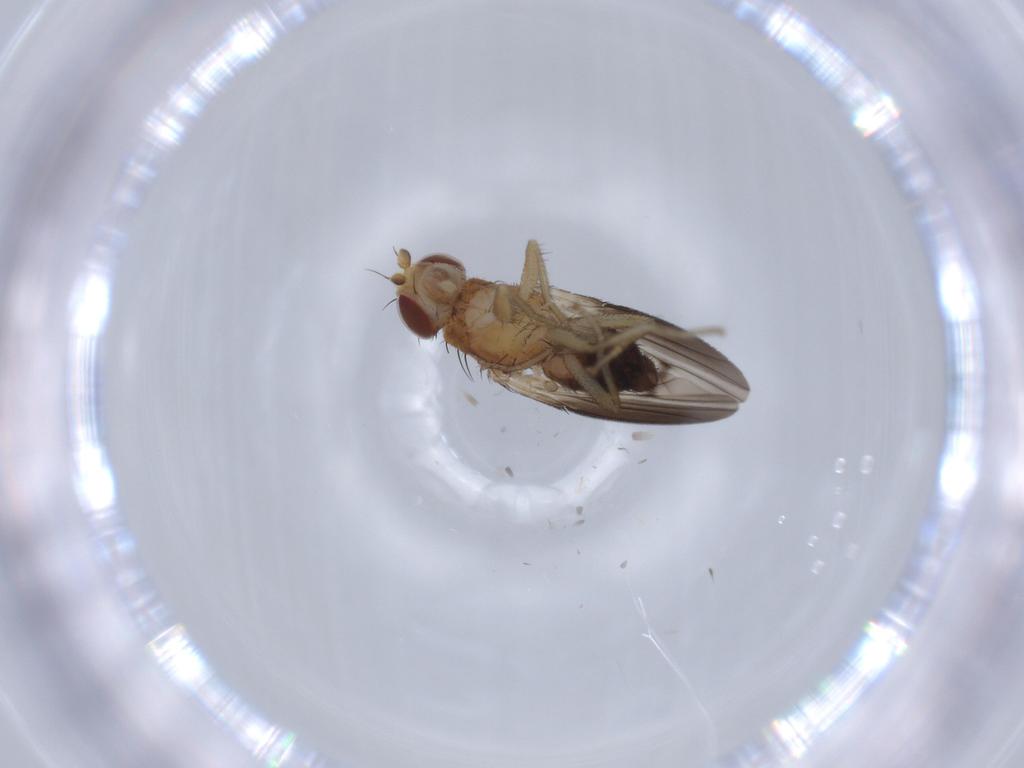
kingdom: Animalia
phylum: Arthropoda
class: Insecta
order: Diptera
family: Heleomyzidae
